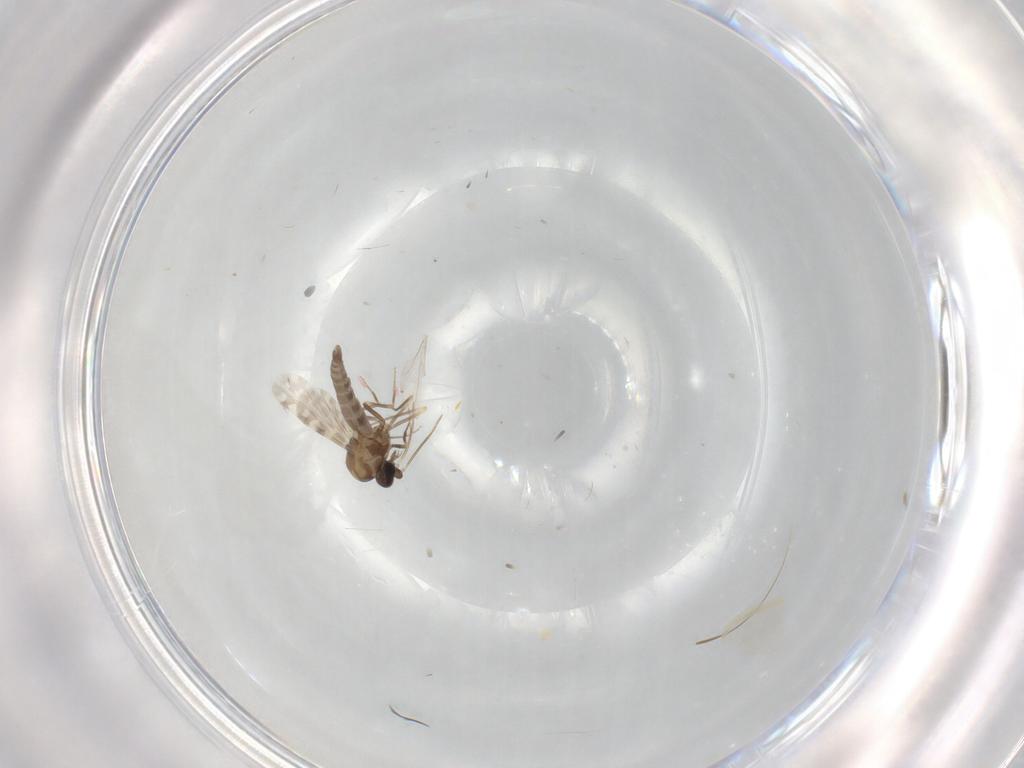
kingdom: Animalia
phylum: Arthropoda
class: Insecta
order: Diptera
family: Ceratopogonidae
